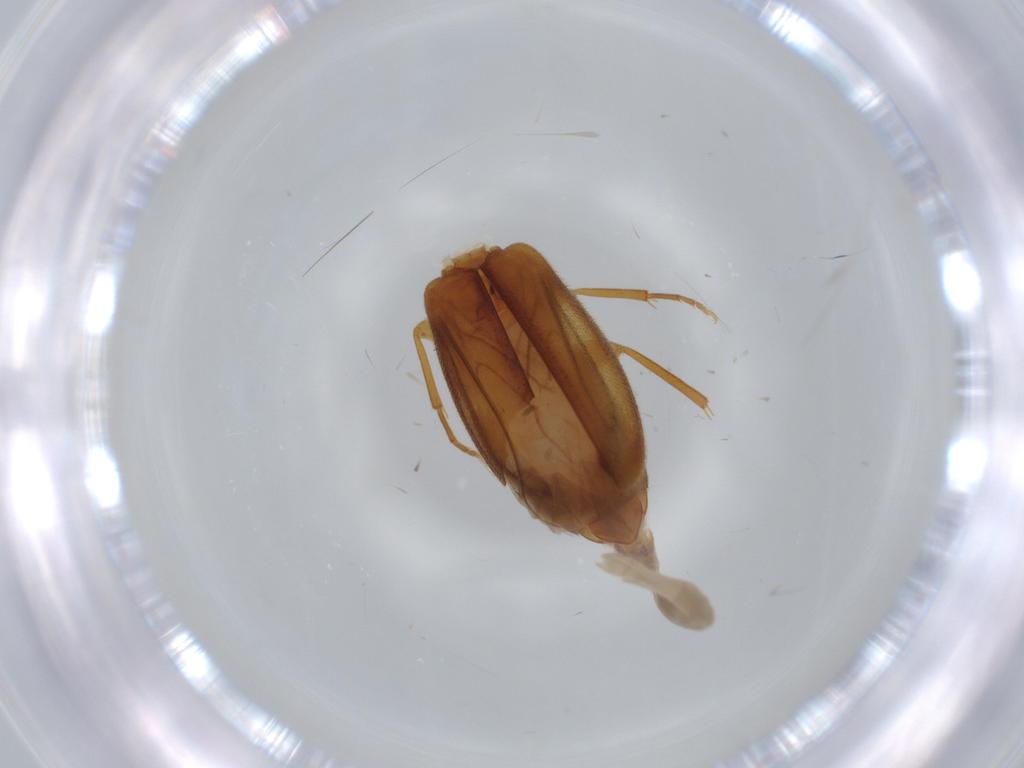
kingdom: Animalia
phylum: Arthropoda
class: Insecta
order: Coleoptera
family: Scraptiidae
